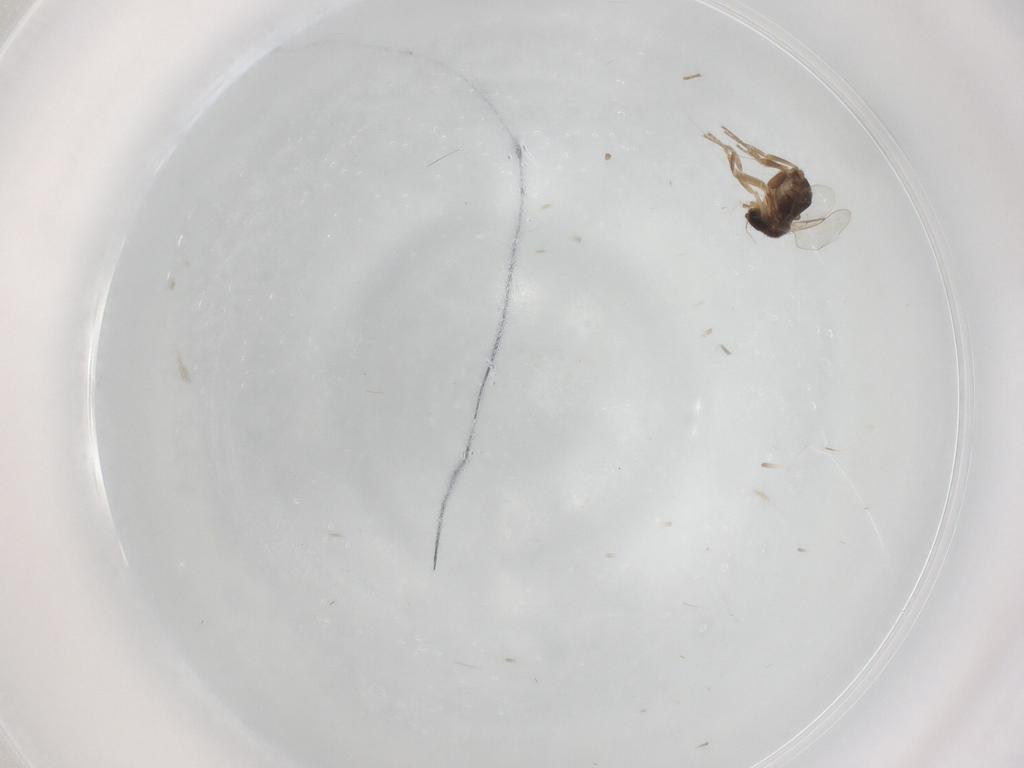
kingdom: Animalia
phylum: Arthropoda
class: Insecta
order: Diptera
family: Phoridae
